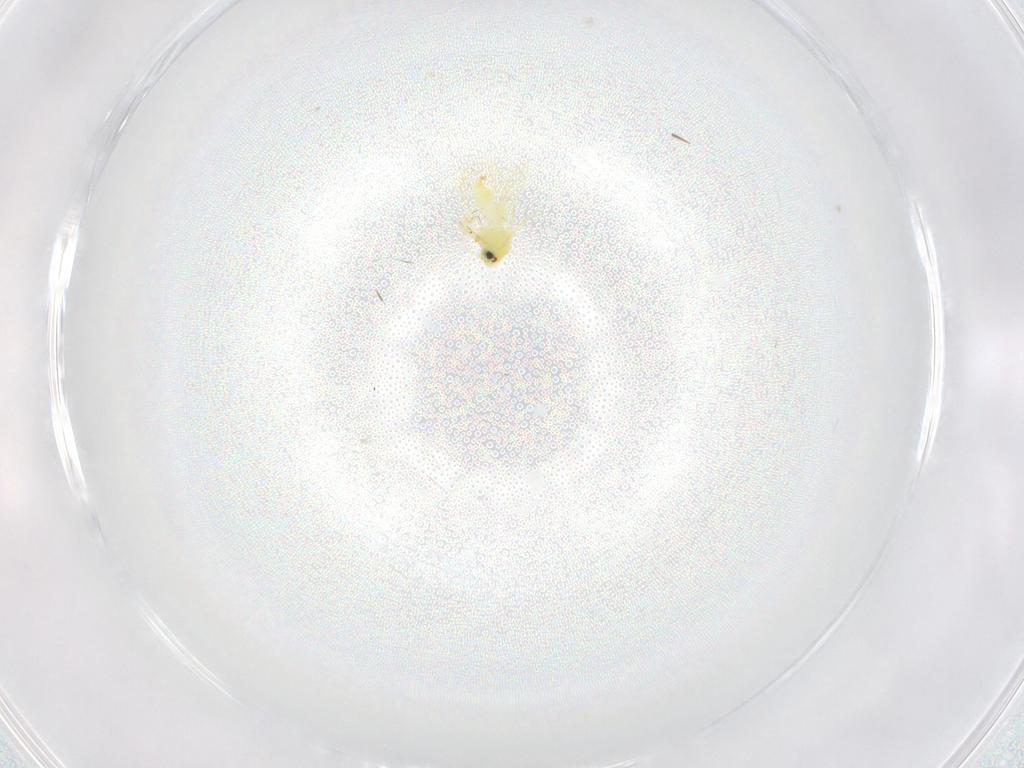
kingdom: Animalia
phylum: Arthropoda
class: Insecta
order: Hemiptera
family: Aleyrodidae
